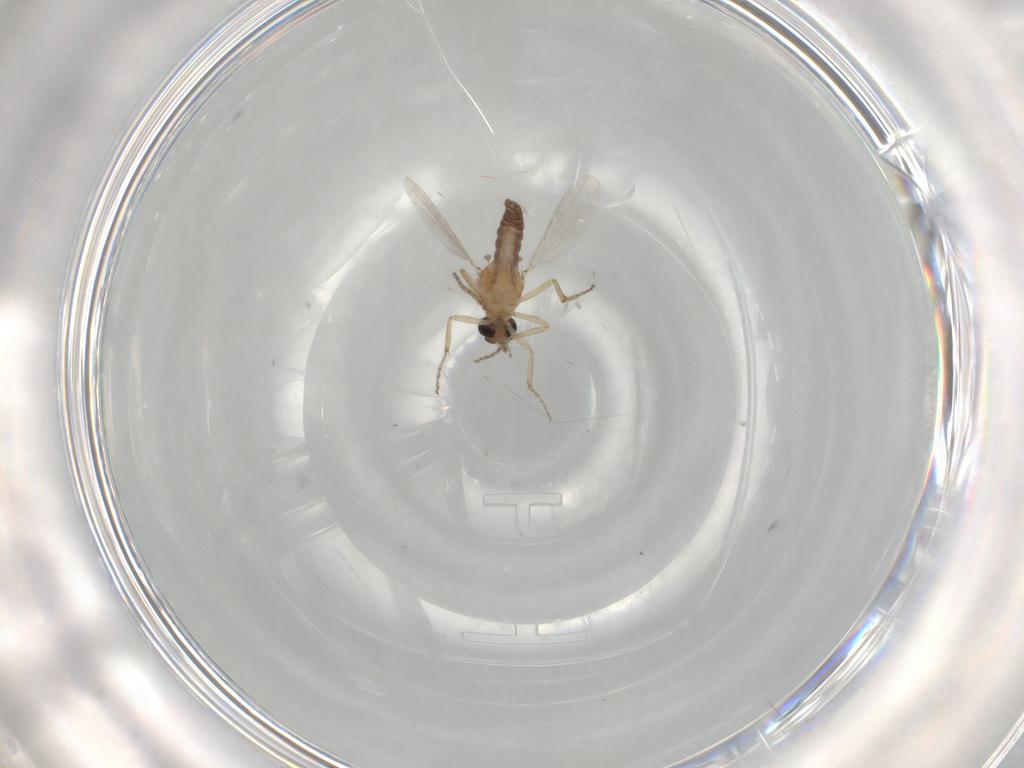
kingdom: Animalia
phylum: Arthropoda
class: Insecta
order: Diptera
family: Ceratopogonidae
